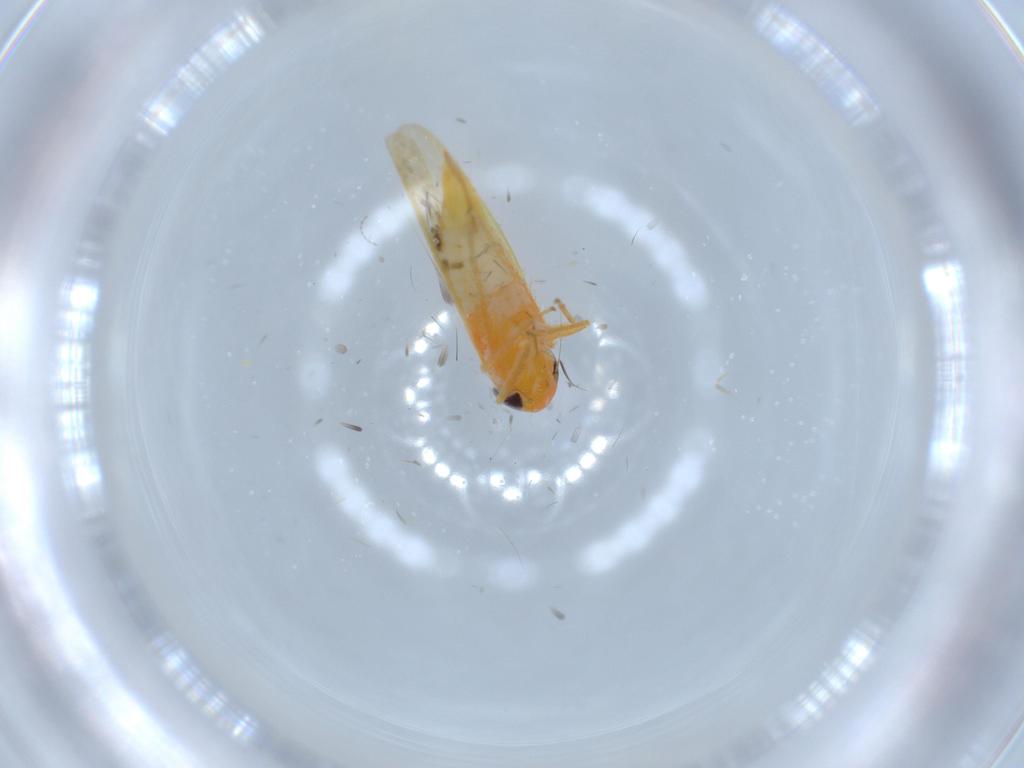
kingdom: Animalia
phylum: Arthropoda
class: Insecta
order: Hemiptera
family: Cicadellidae
